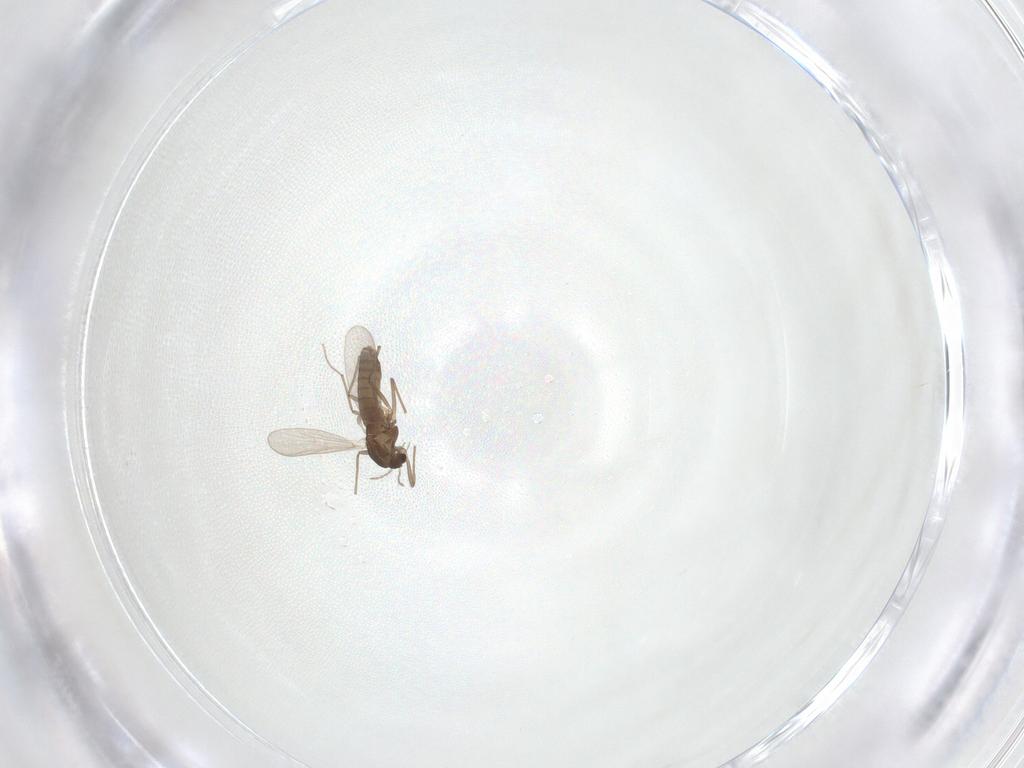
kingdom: Animalia
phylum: Arthropoda
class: Insecta
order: Diptera
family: Chironomidae
